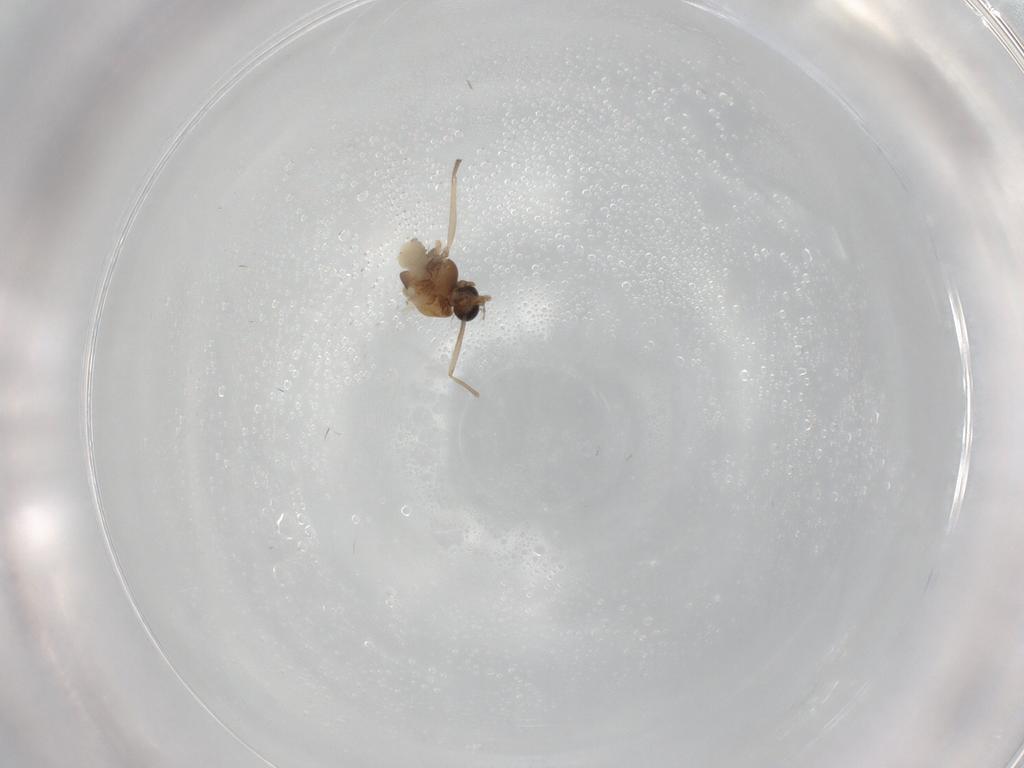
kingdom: Animalia
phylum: Arthropoda
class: Insecta
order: Diptera
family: Chironomidae
